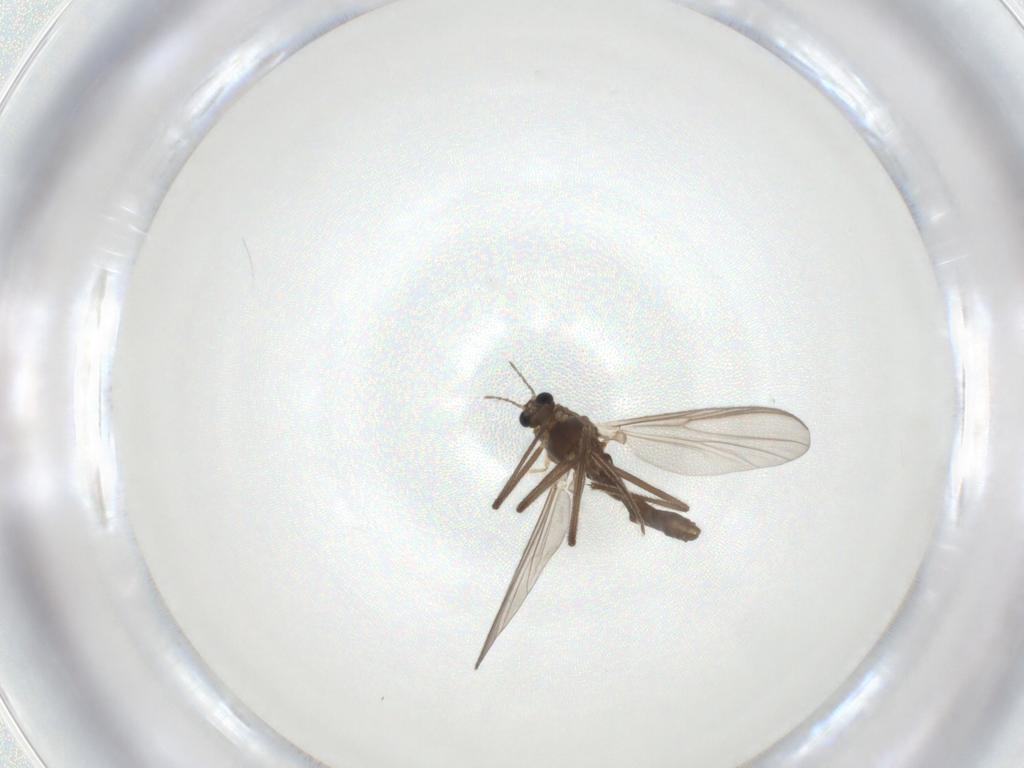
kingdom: Animalia
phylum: Arthropoda
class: Insecta
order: Diptera
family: Chironomidae
